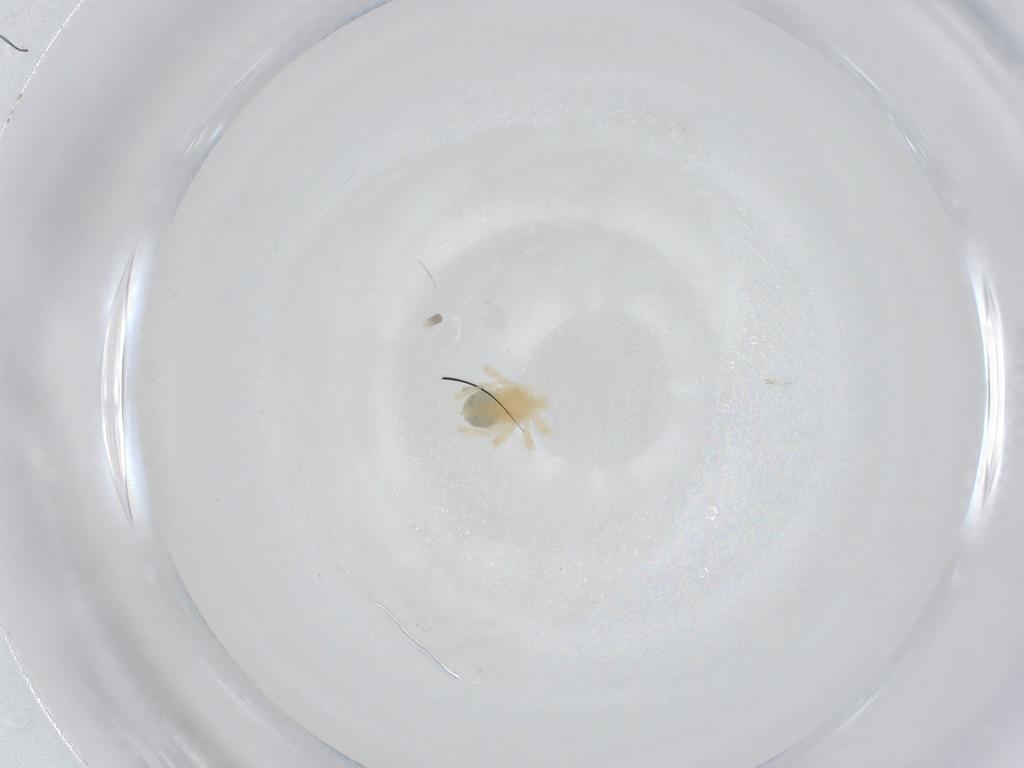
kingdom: Animalia
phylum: Arthropoda
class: Arachnida
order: Trombidiformes
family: Anystidae
